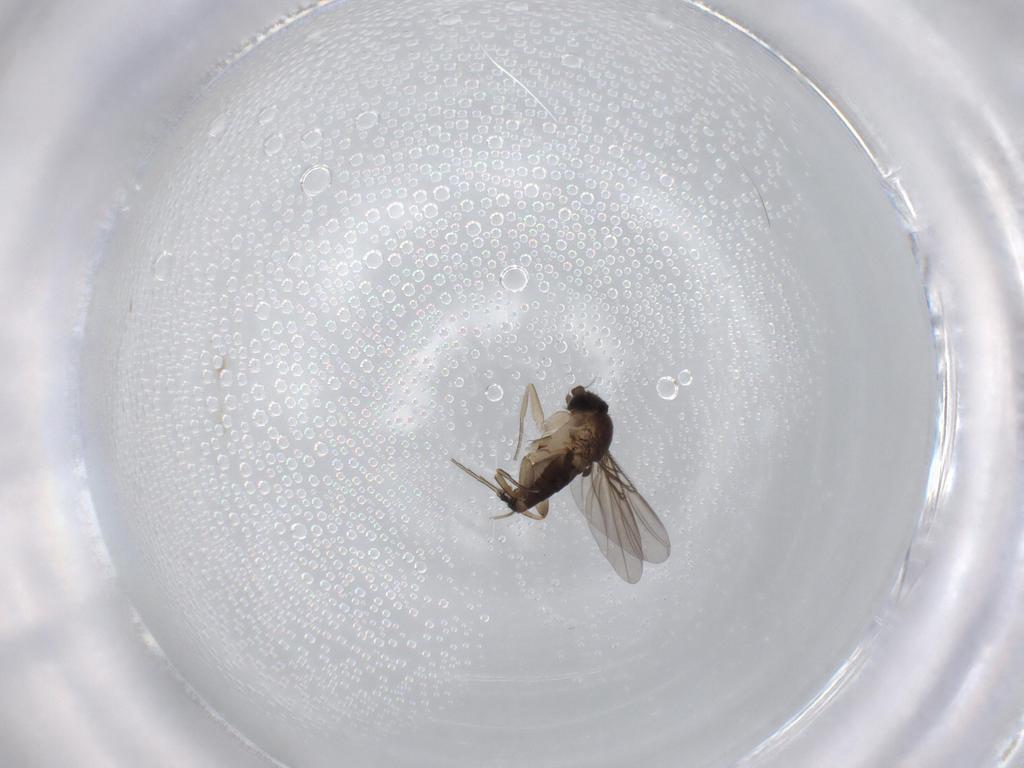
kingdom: Animalia
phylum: Arthropoda
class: Insecta
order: Diptera
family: Phoridae
